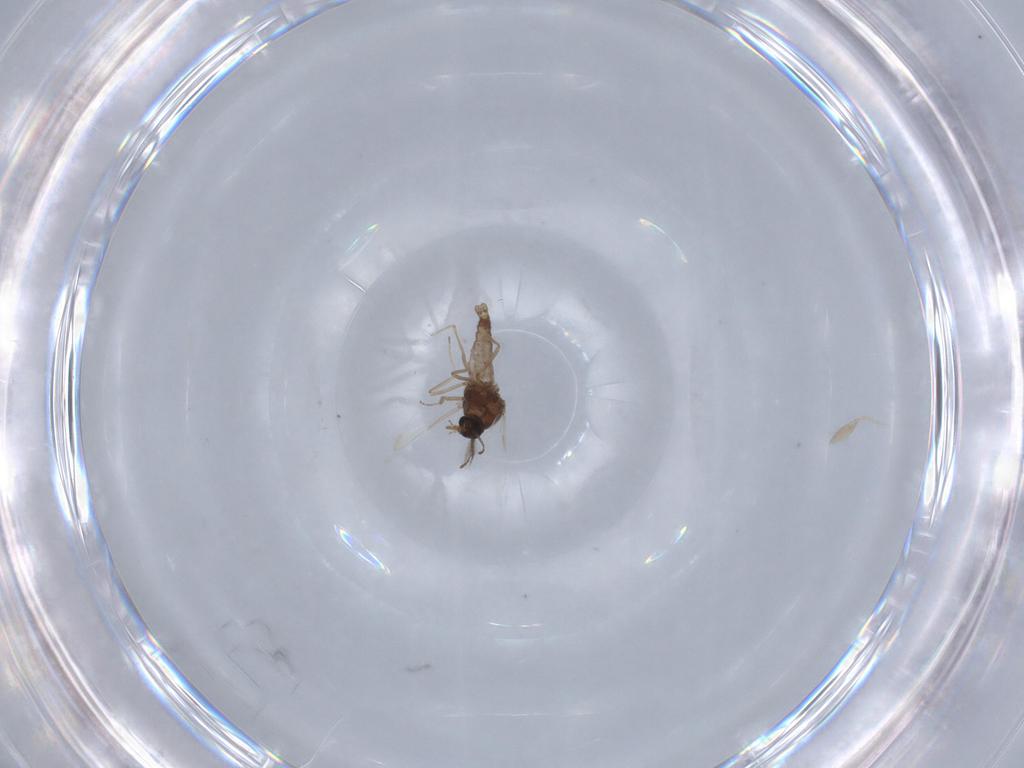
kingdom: Animalia
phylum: Arthropoda
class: Insecta
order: Diptera
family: Ceratopogonidae
